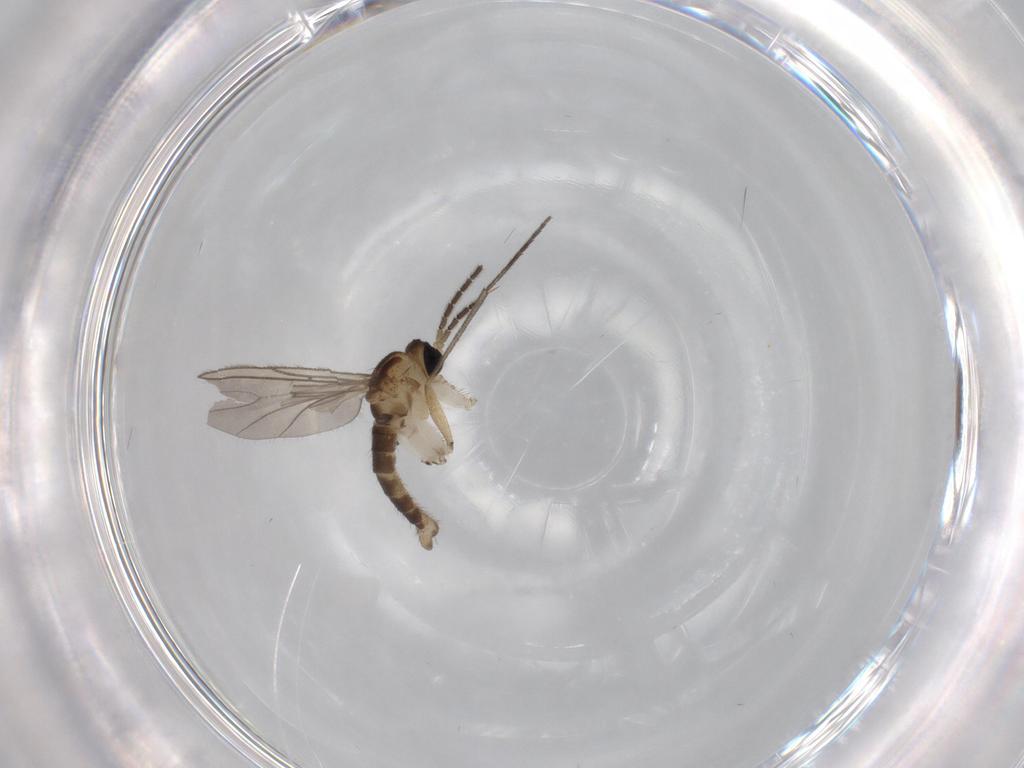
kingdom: Animalia
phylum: Arthropoda
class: Insecta
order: Diptera
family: Sciaridae
